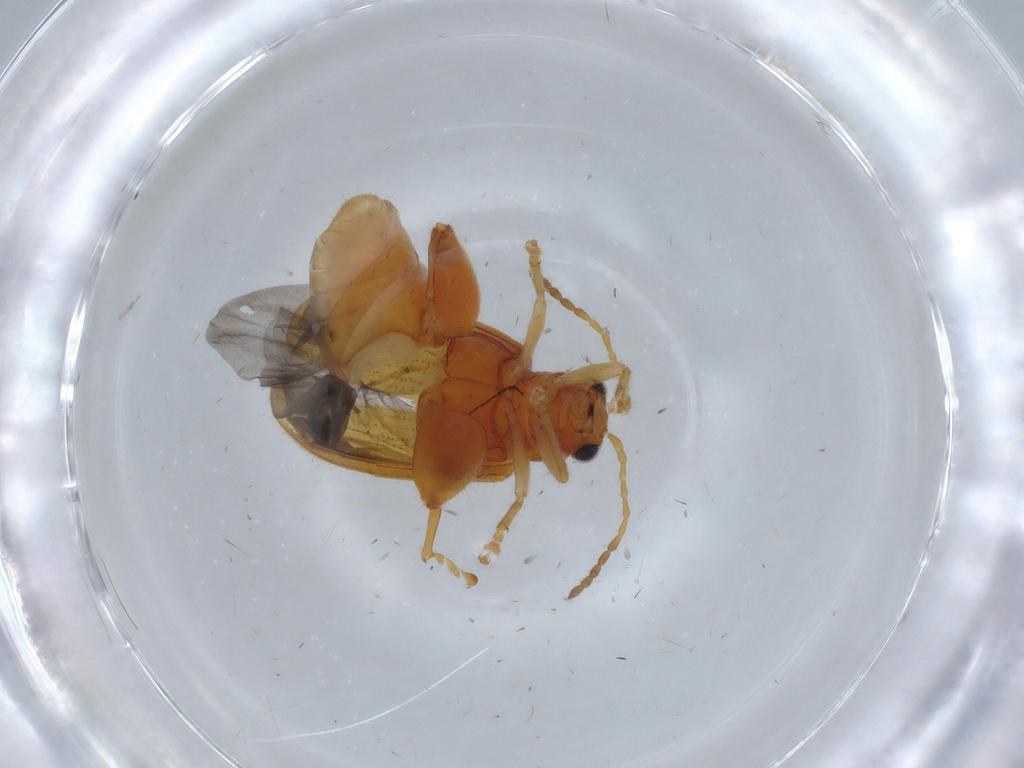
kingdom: Animalia
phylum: Arthropoda
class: Insecta
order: Coleoptera
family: Chrysomelidae
